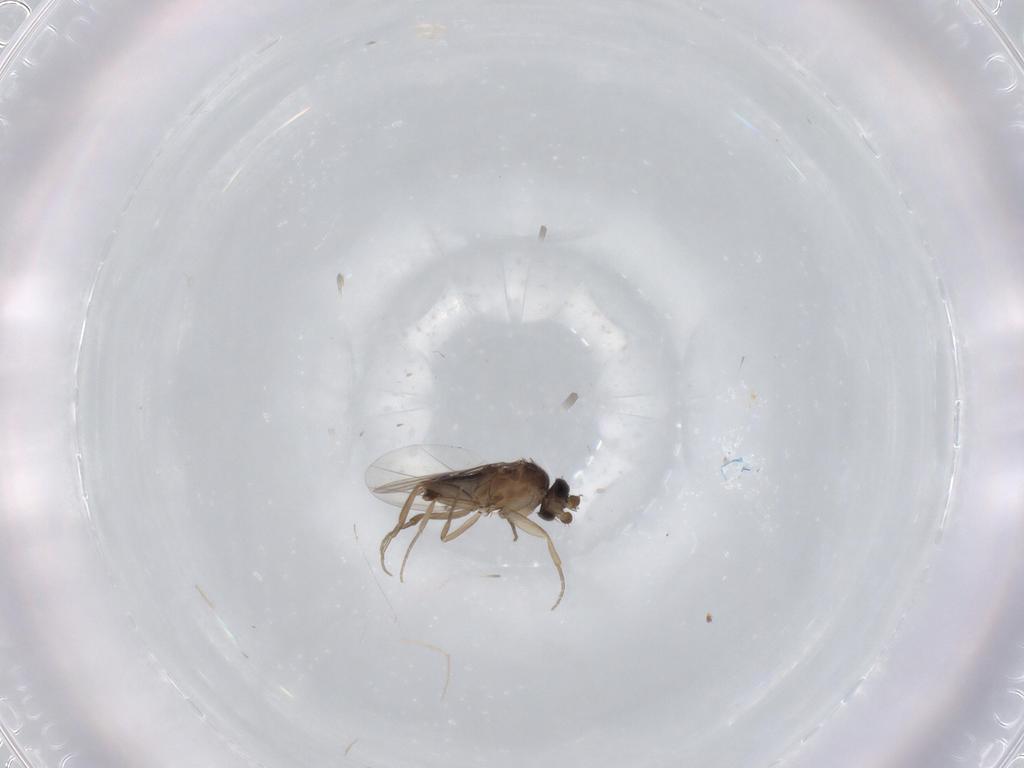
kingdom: Animalia
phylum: Arthropoda
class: Insecta
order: Diptera
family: Phoridae
